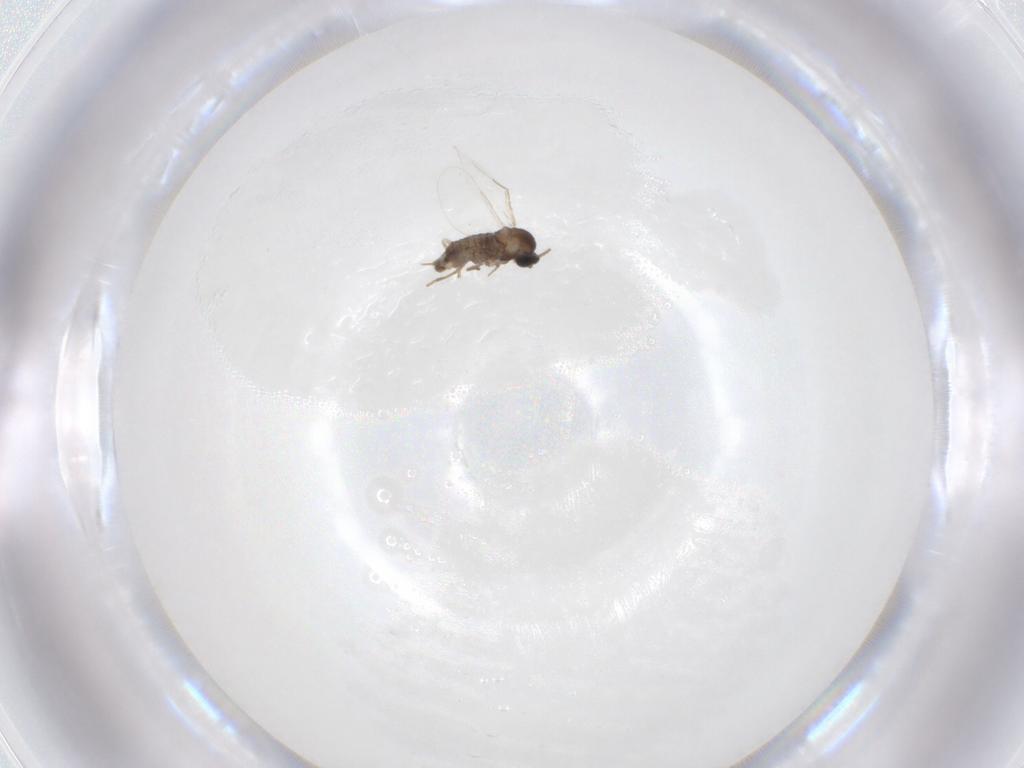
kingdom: Animalia
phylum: Arthropoda
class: Insecta
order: Diptera
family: Cecidomyiidae
